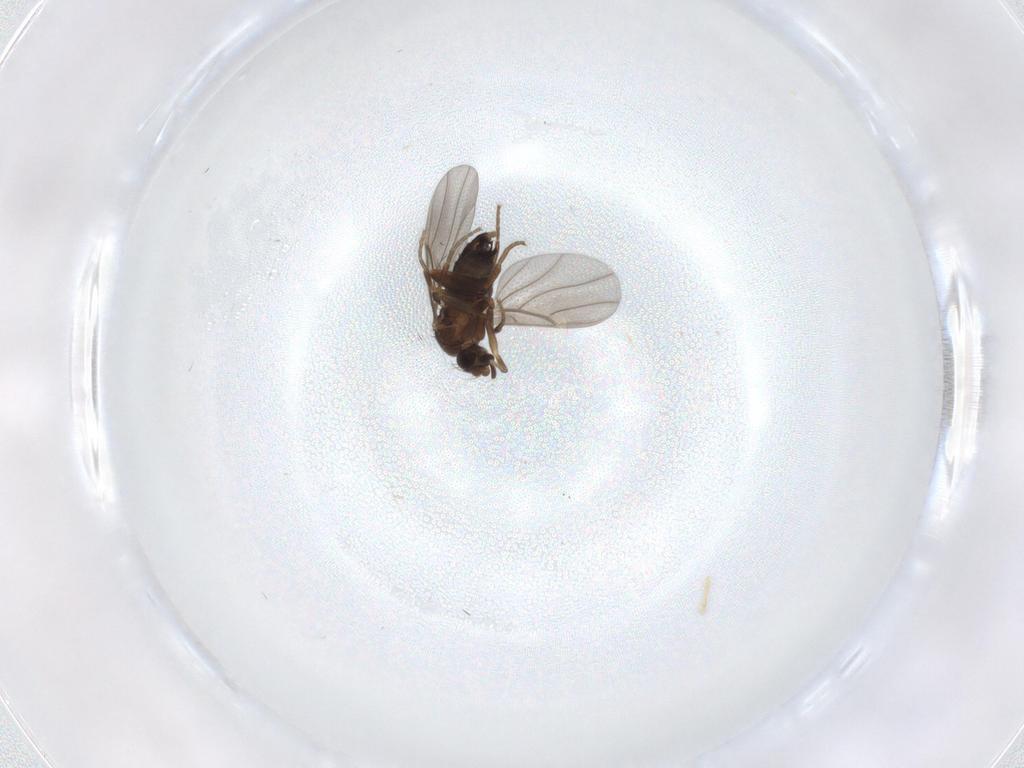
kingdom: Animalia
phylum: Arthropoda
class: Insecta
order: Diptera
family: Phoridae
